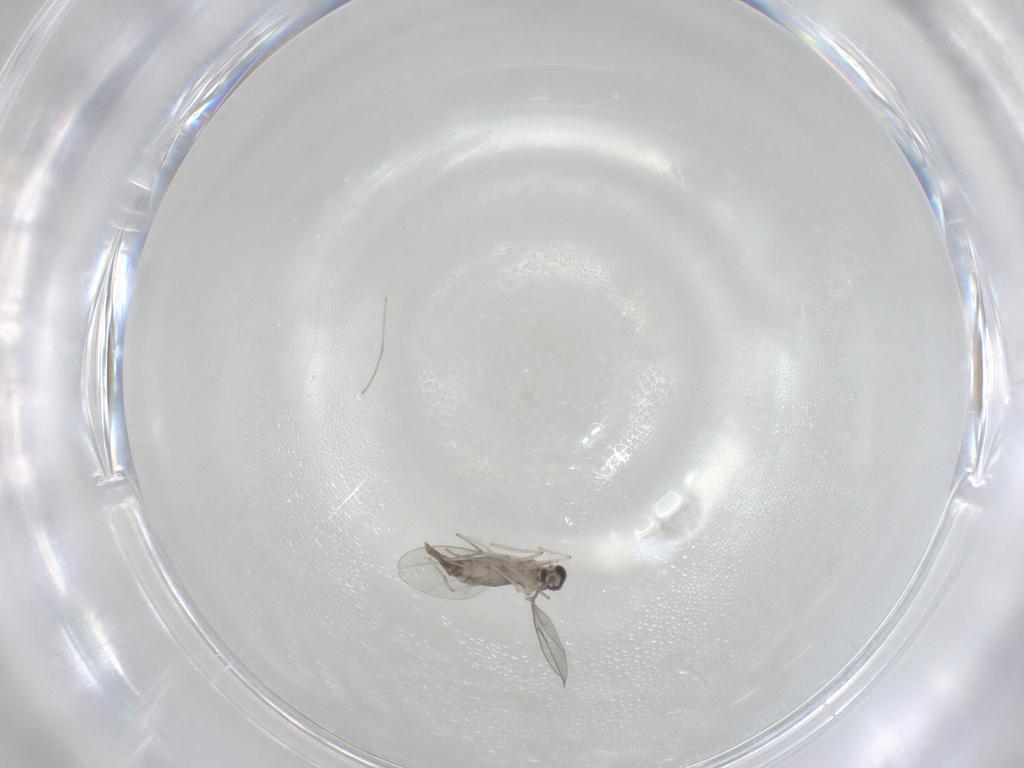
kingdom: Animalia
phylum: Arthropoda
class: Insecta
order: Diptera
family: Cecidomyiidae
